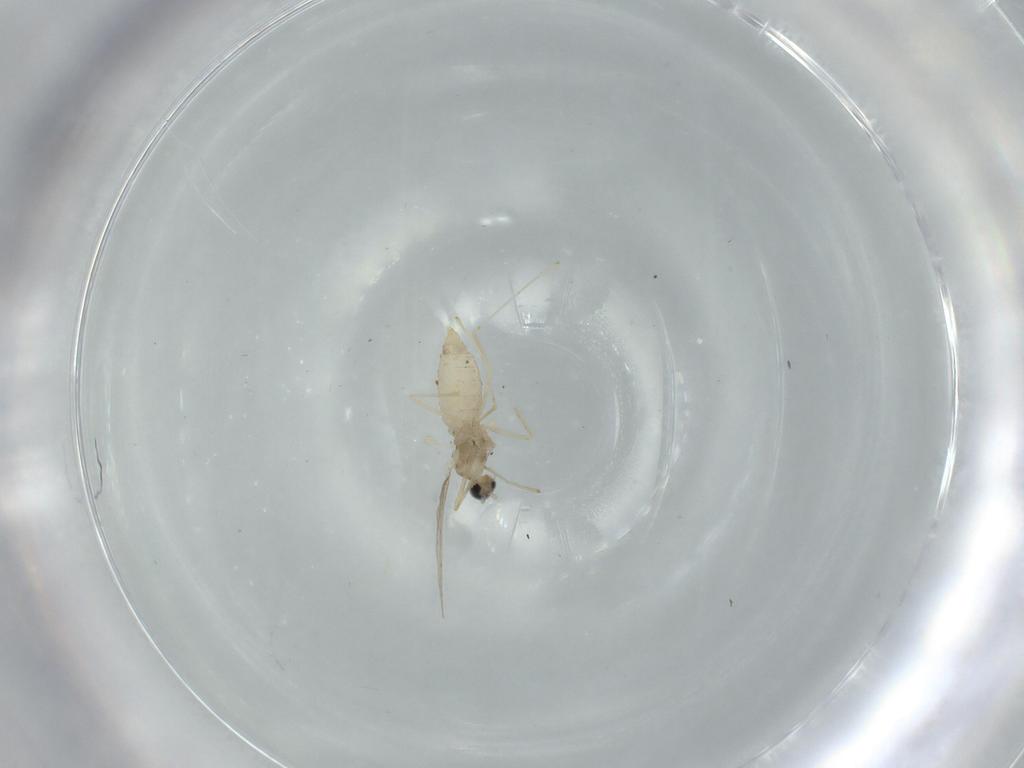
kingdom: Animalia
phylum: Arthropoda
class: Insecta
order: Diptera
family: Cecidomyiidae
